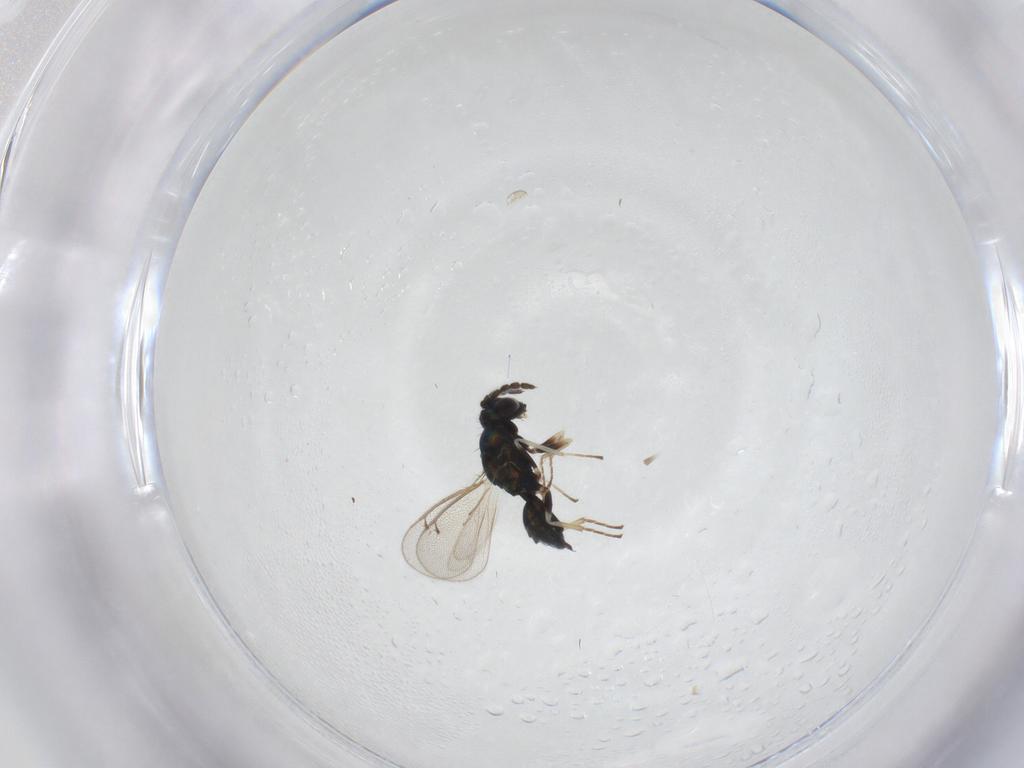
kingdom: Animalia
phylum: Arthropoda
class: Insecta
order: Hymenoptera
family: Eulophidae
